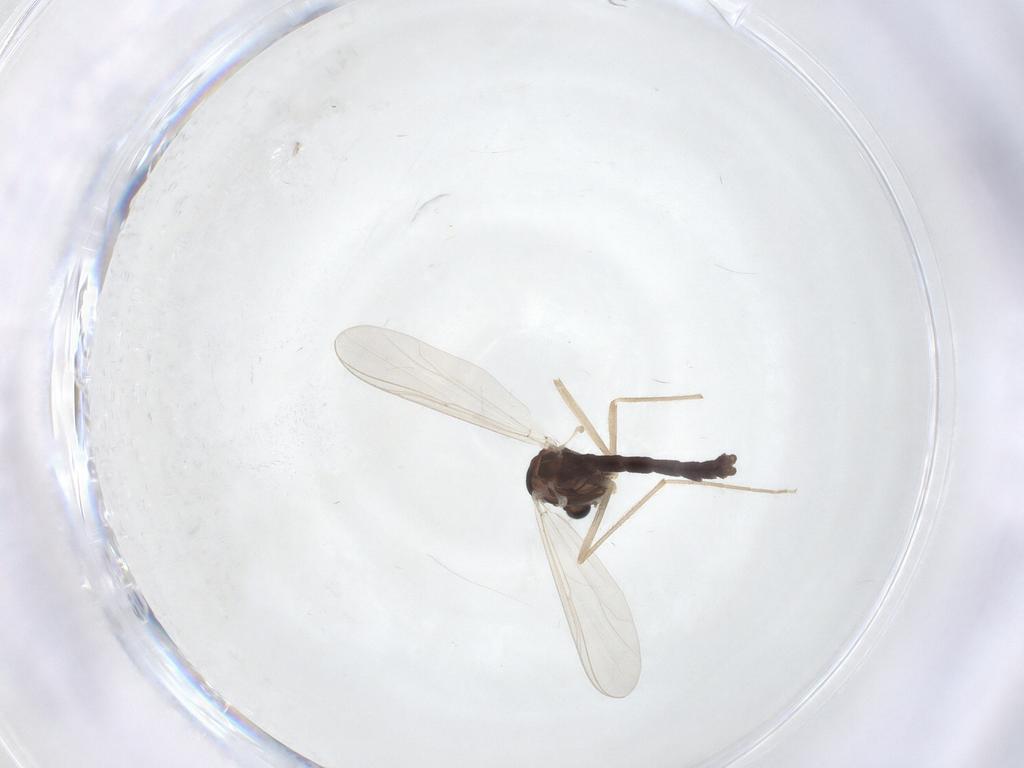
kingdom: Animalia
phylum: Arthropoda
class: Insecta
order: Diptera
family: Chironomidae
